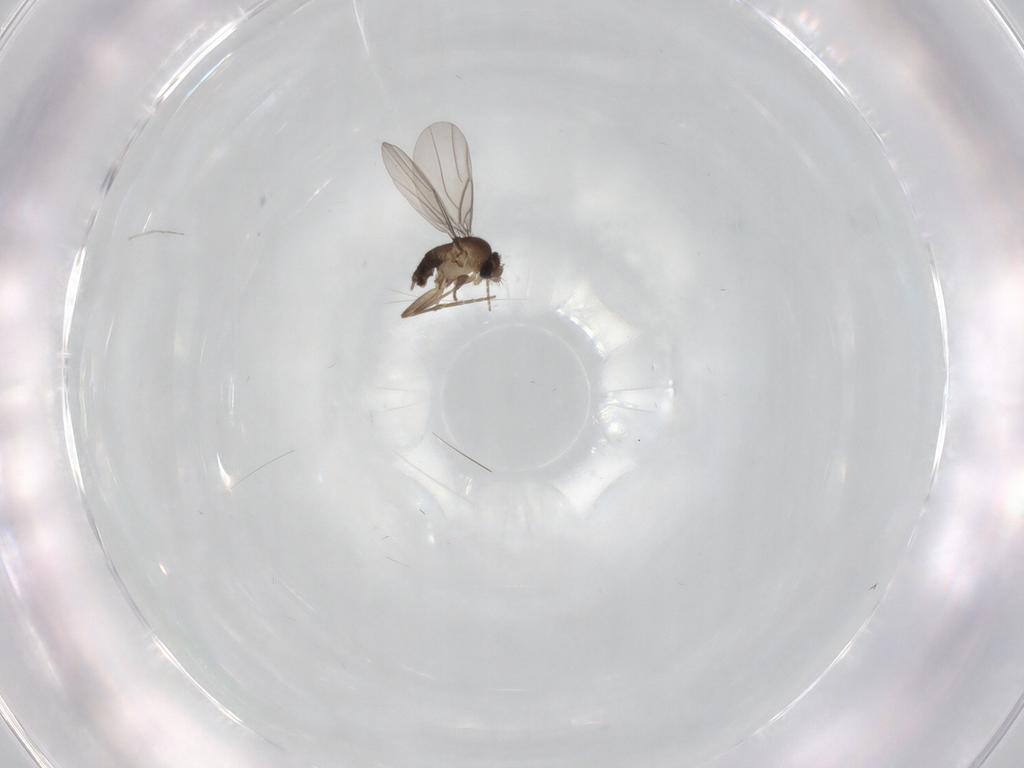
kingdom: Animalia
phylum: Arthropoda
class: Insecta
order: Diptera
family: Phoridae
